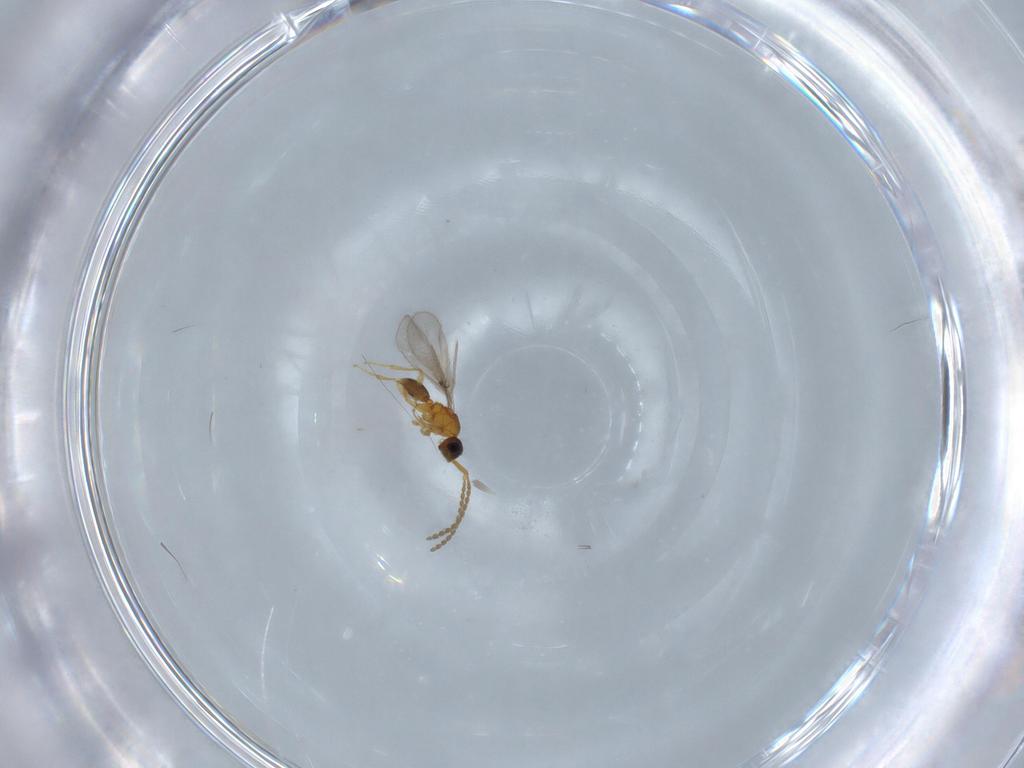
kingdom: Animalia
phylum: Arthropoda
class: Insecta
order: Hymenoptera
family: Diapriidae
